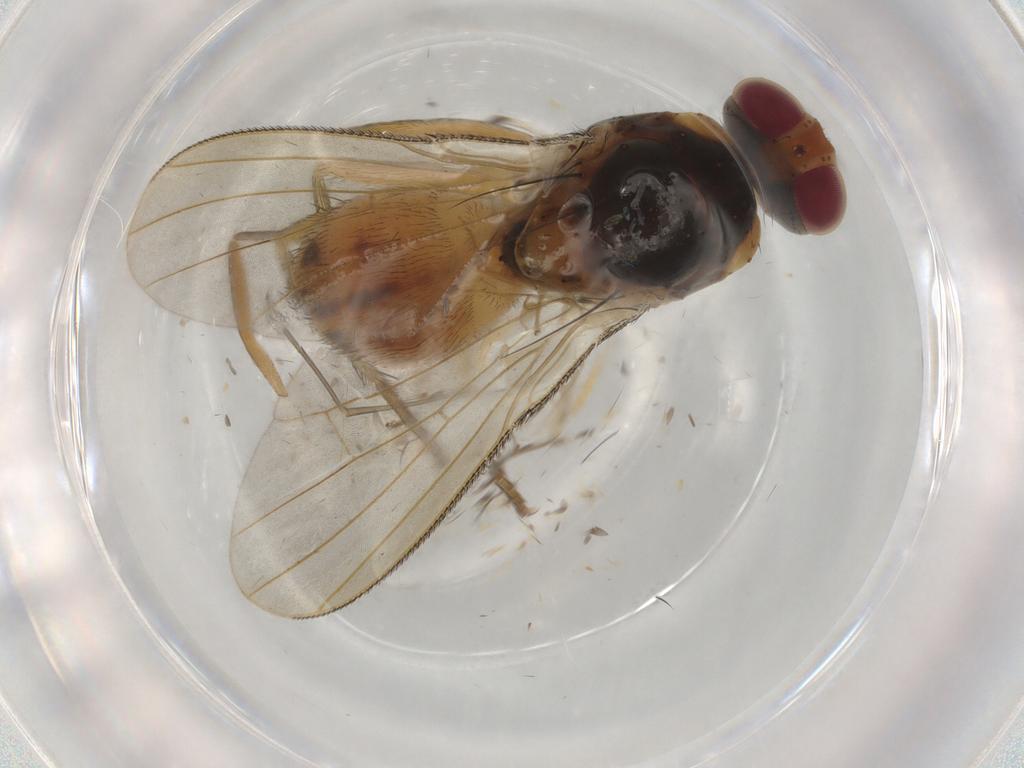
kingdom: Animalia
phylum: Arthropoda
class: Insecta
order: Diptera
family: Muscidae
